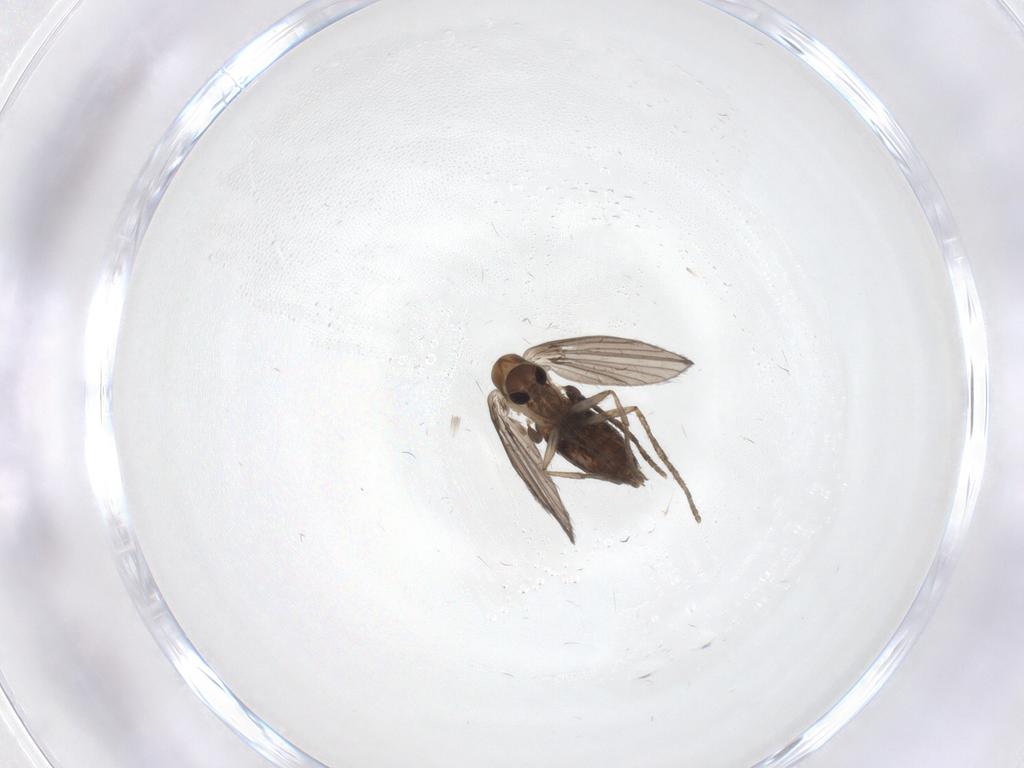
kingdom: Animalia
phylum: Arthropoda
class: Insecta
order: Diptera
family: Psychodidae
